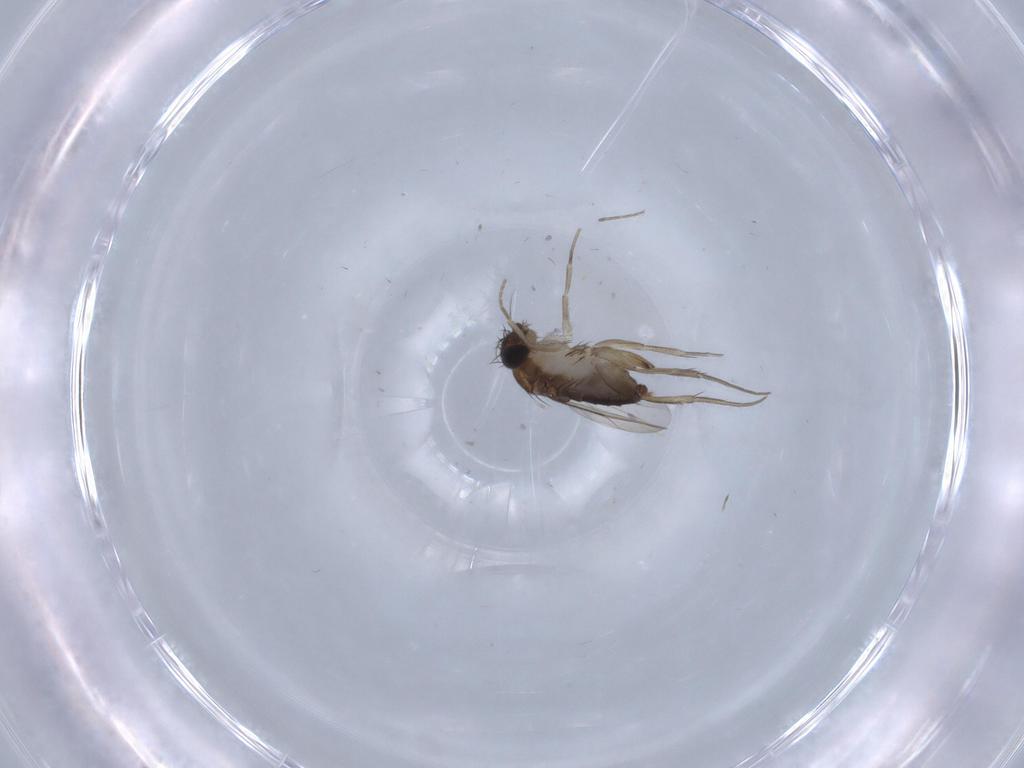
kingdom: Animalia
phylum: Arthropoda
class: Insecta
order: Diptera
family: Phoridae
